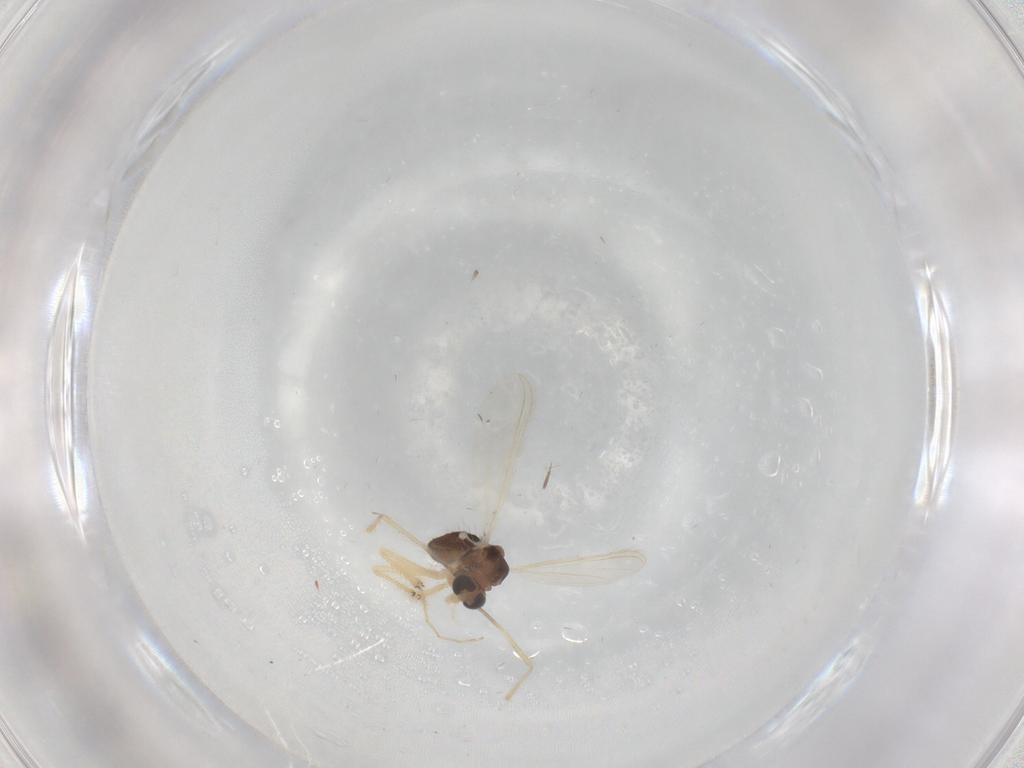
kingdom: Animalia
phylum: Arthropoda
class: Insecta
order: Diptera
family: Chironomidae
